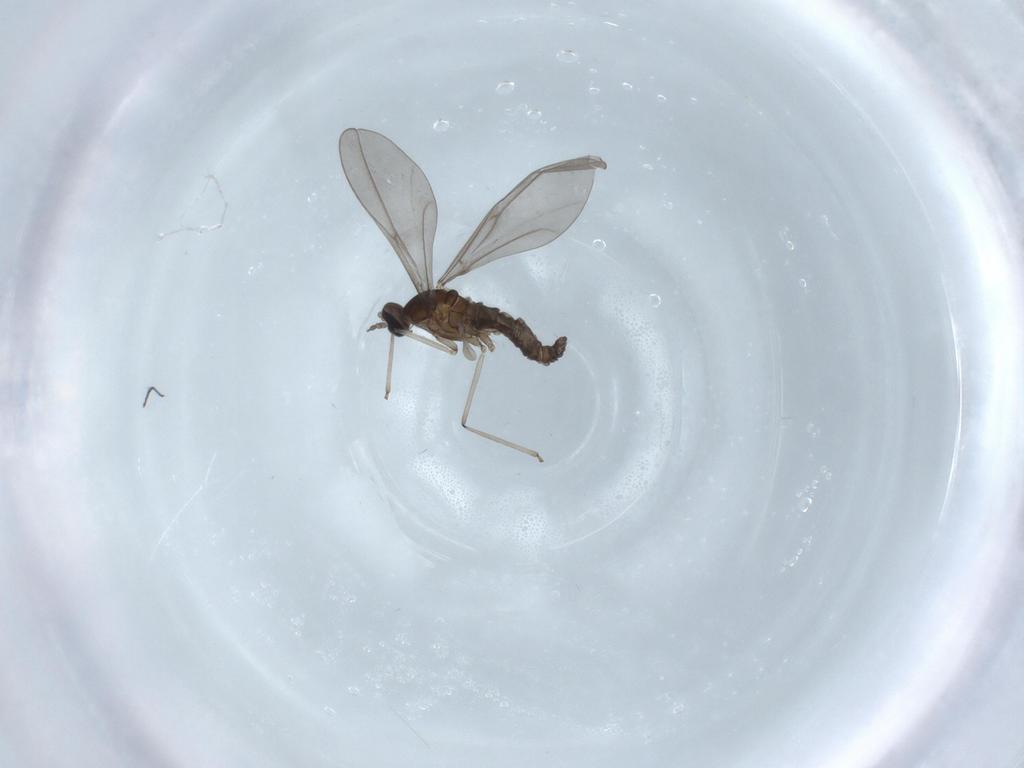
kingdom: Animalia
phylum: Arthropoda
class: Insecta
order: Diptera
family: Cecidomyiidae
